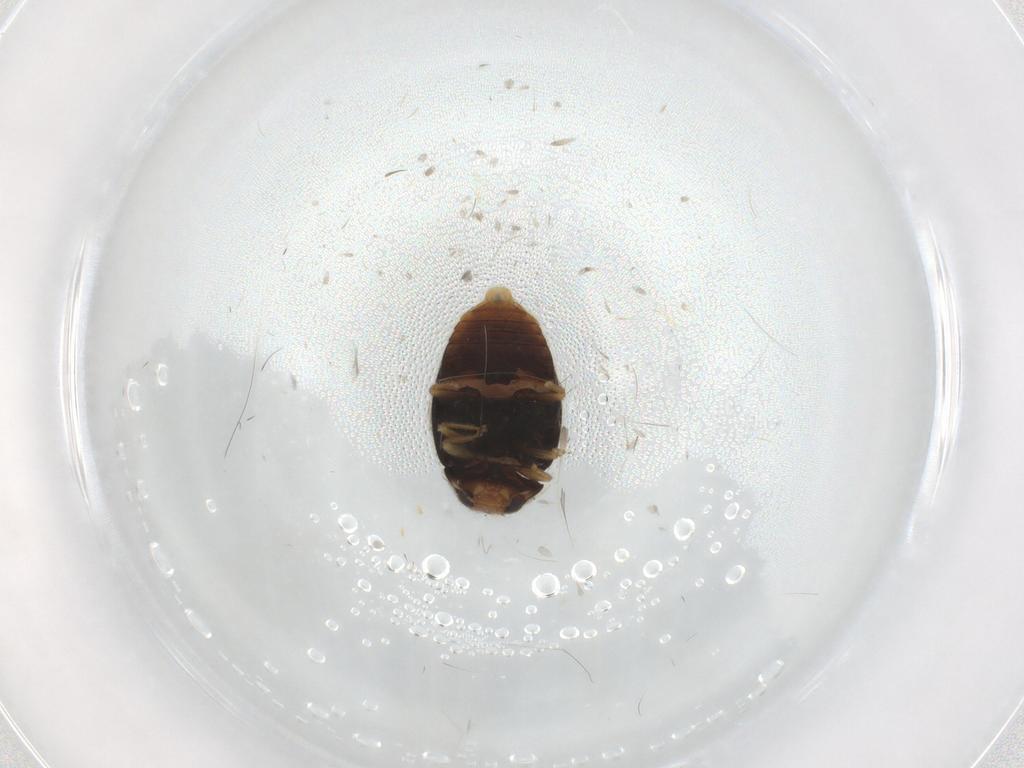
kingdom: Animalia
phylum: Arthropoda
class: Insecta
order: Coleoptera
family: Coccinellidae
